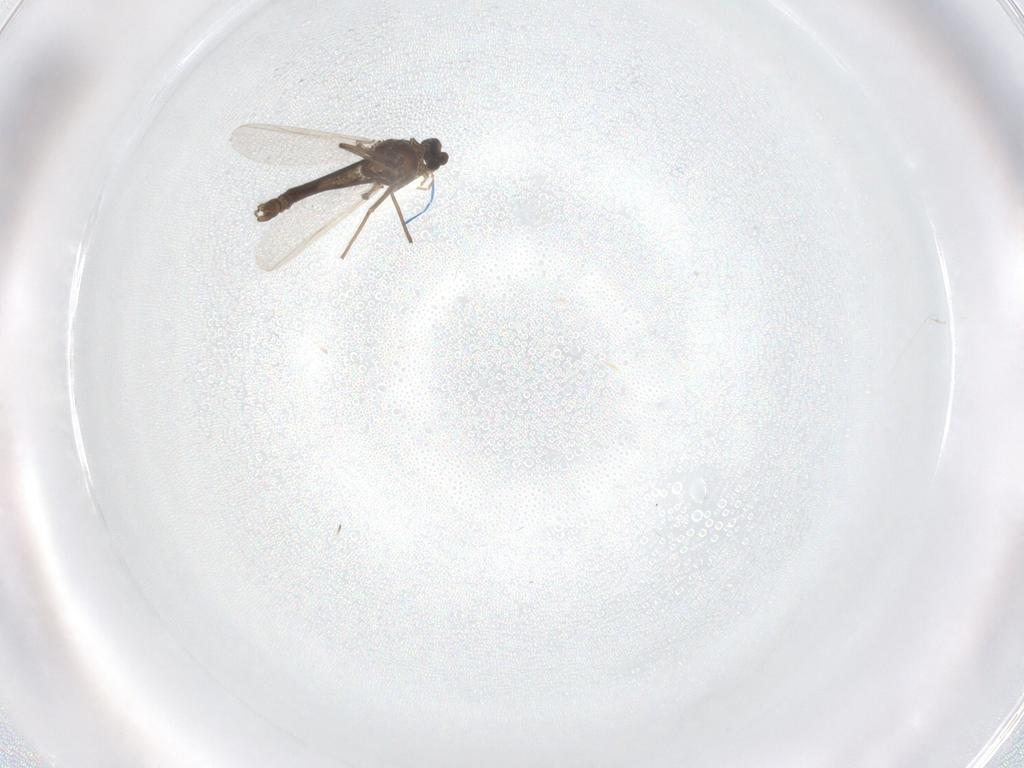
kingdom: Animalia
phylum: Arthropoda
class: Insecta
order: Diptera
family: Chironomidae
